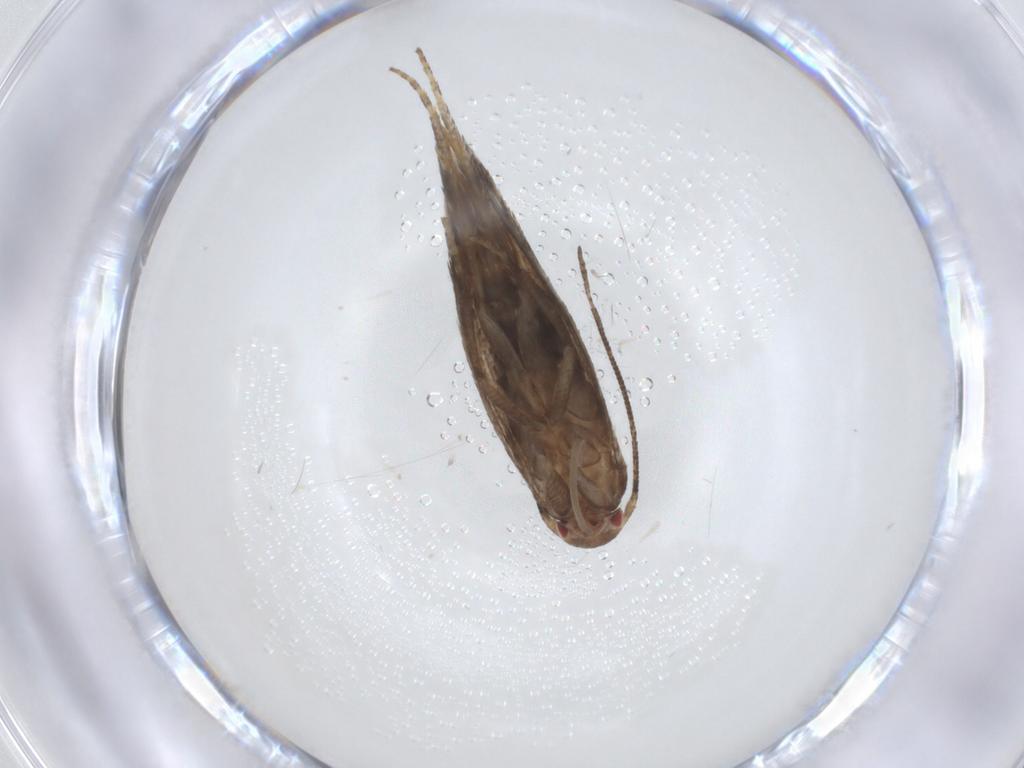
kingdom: Animalia
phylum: Arthropoda
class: Insecta
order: Lepidoptera
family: Momphidae
